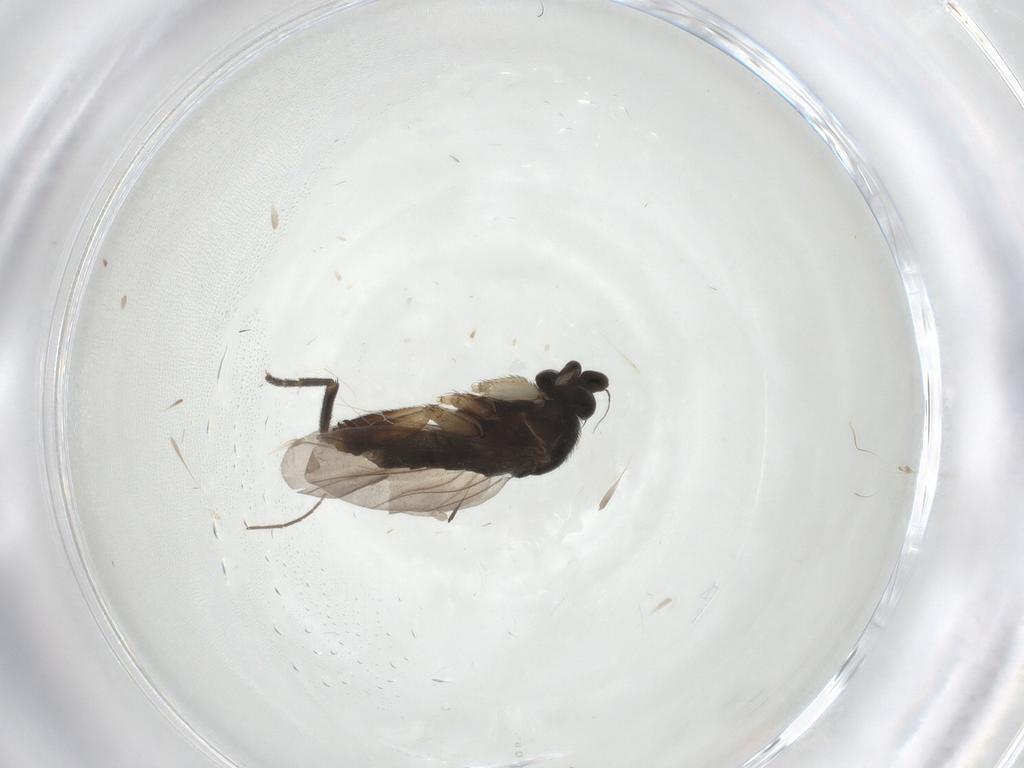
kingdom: Animalia
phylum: Arthropoda
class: Insecta
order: Diptera
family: Phoridae
